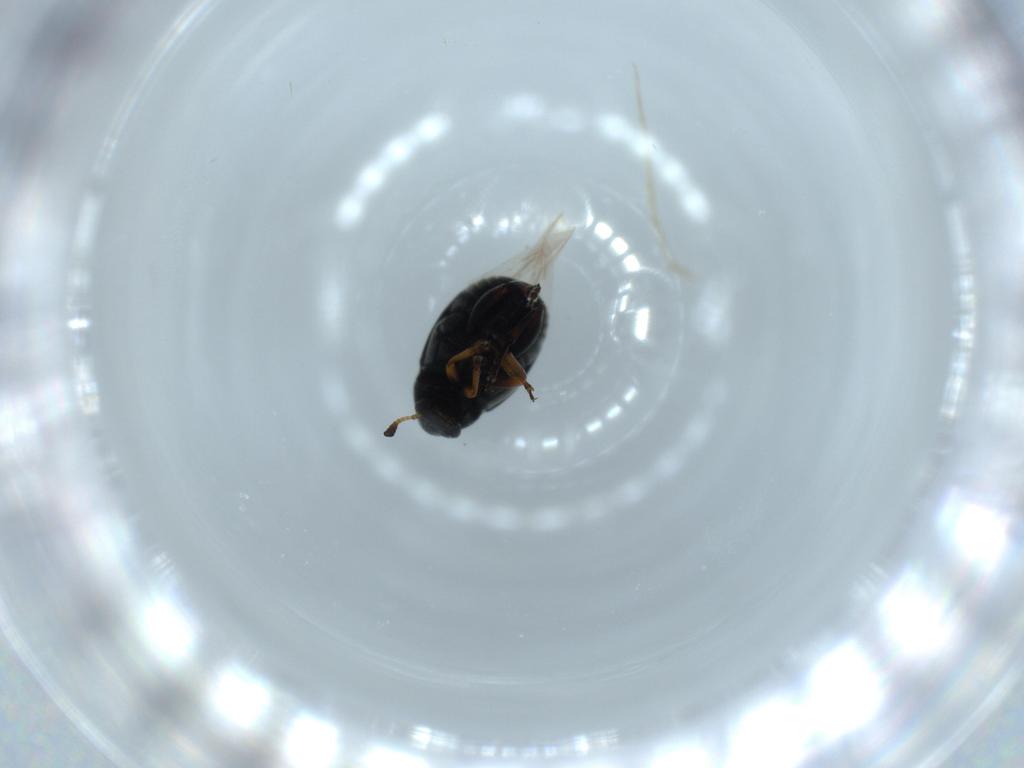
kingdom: Animalia
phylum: Arthropoda
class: Insecta
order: Coleoptera
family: Chrysomelidae
